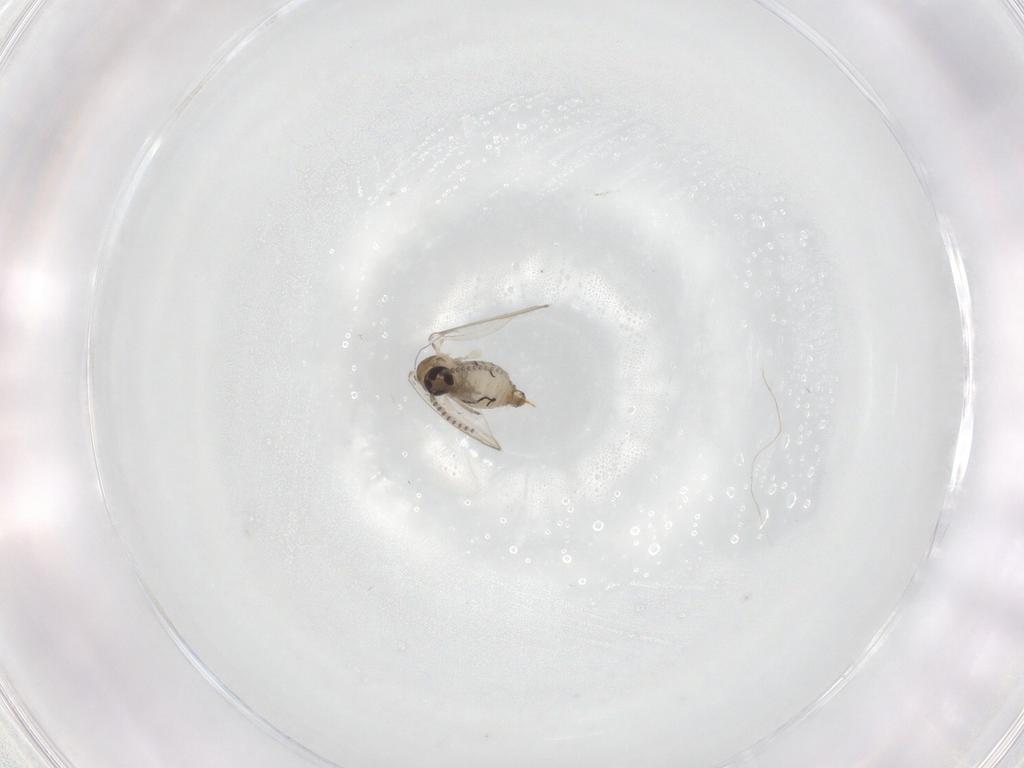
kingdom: Animalia
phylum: Arthropoda
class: Insecta
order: Diptera
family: Psychodidae
